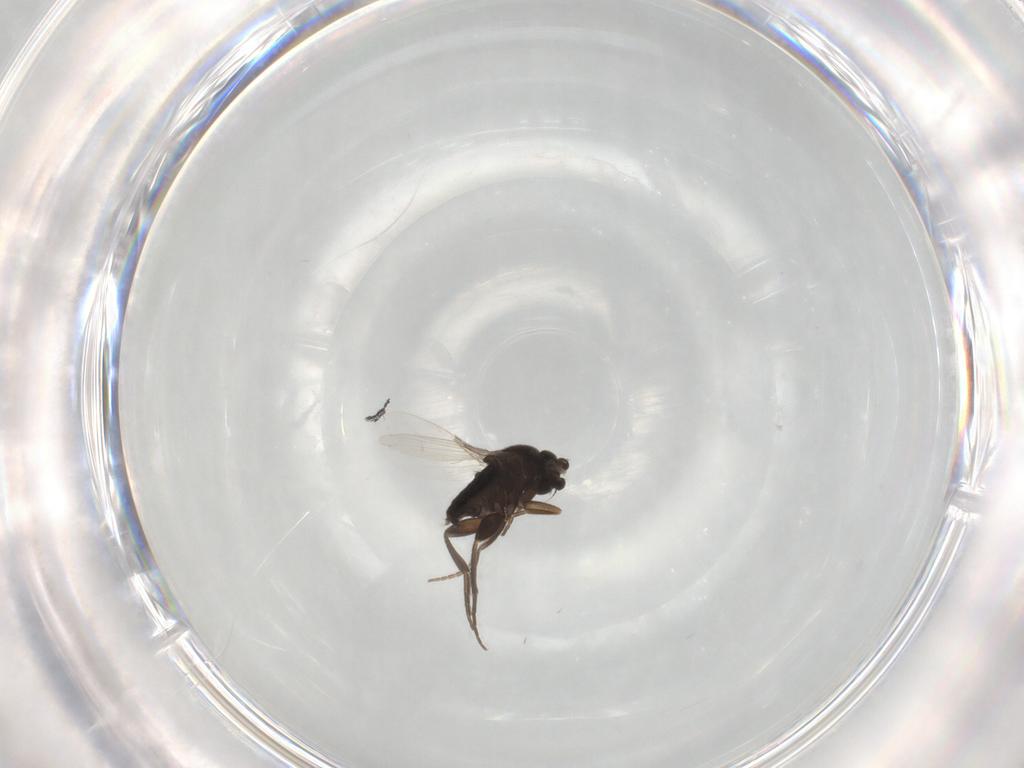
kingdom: Animalia
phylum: Arthropoda
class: Insecta
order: Diptera
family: Phoridae
